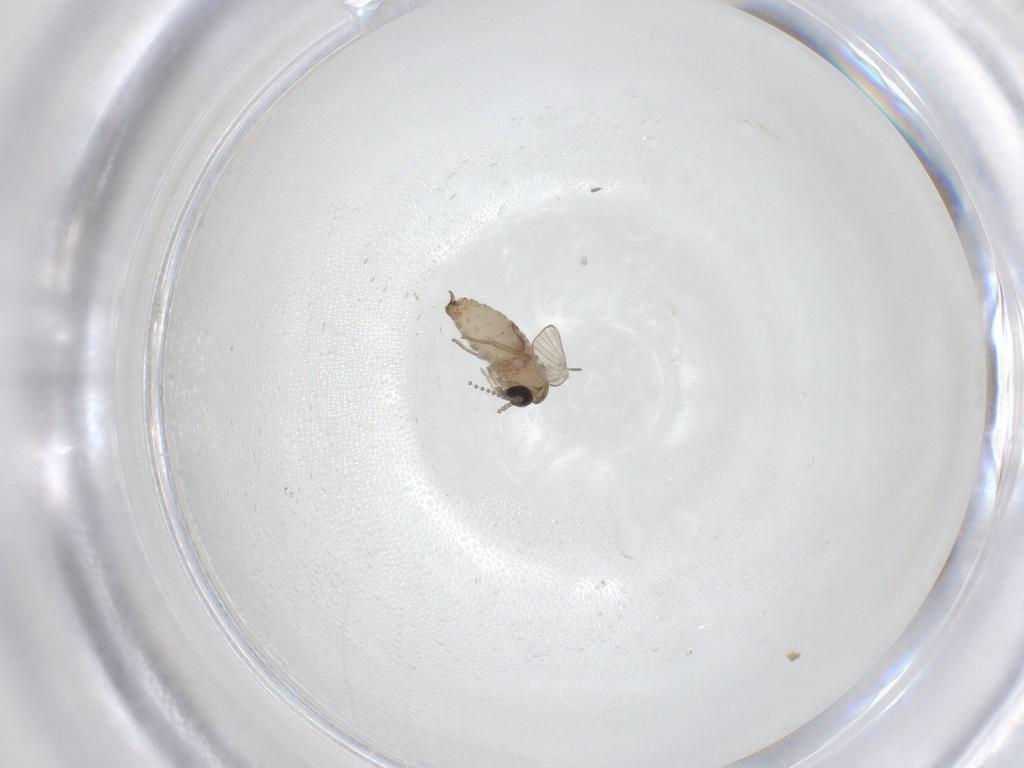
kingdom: Animalia
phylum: Arthropoda
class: Insecta
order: Diptera
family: Psychodidae
